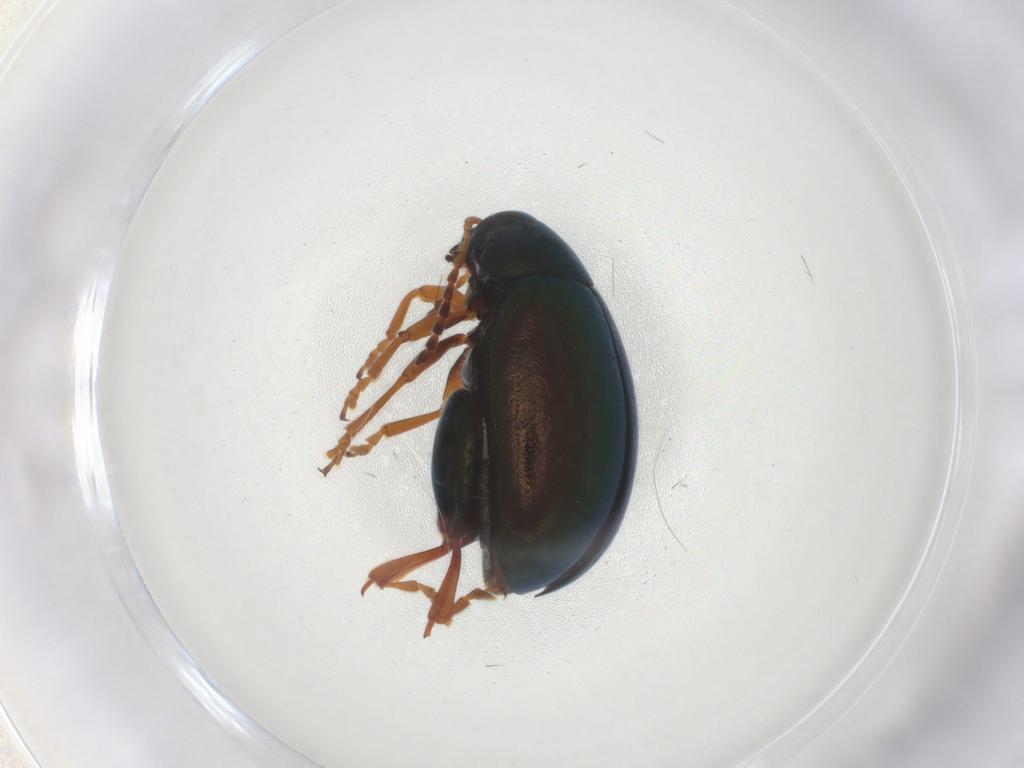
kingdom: Animalia
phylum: Arthropoda
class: Insecta
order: Coleoptera
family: Chrysomelidae
